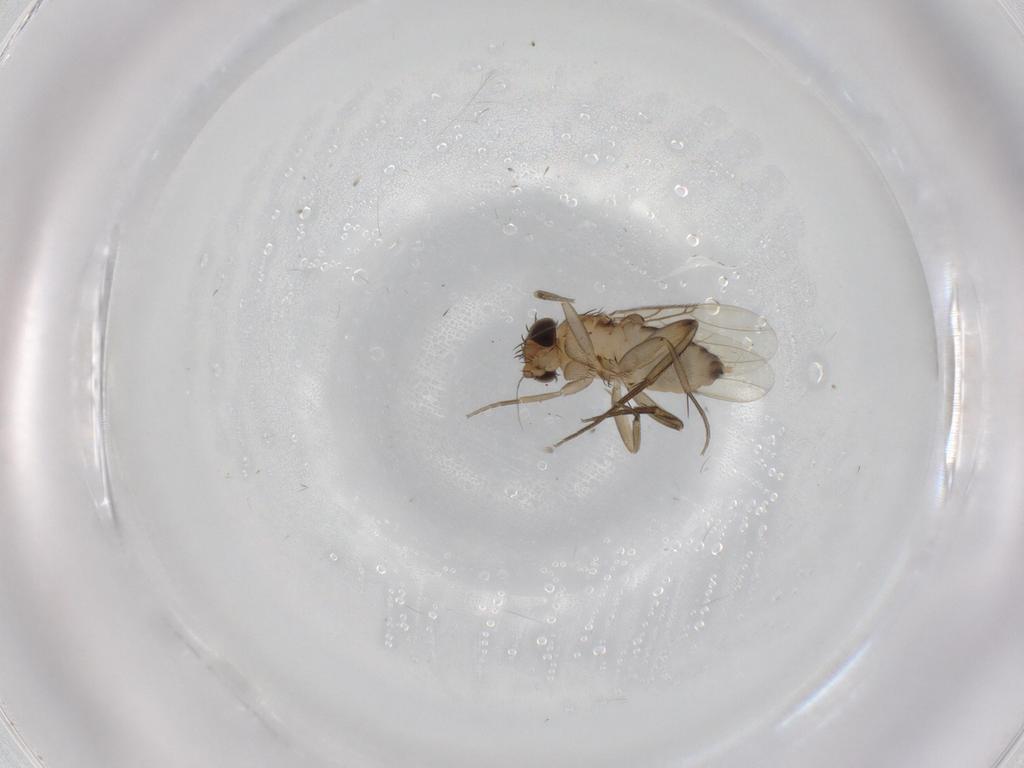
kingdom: Animalia
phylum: Arthropoda
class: Insecta
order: Diptera
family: Phoridae
